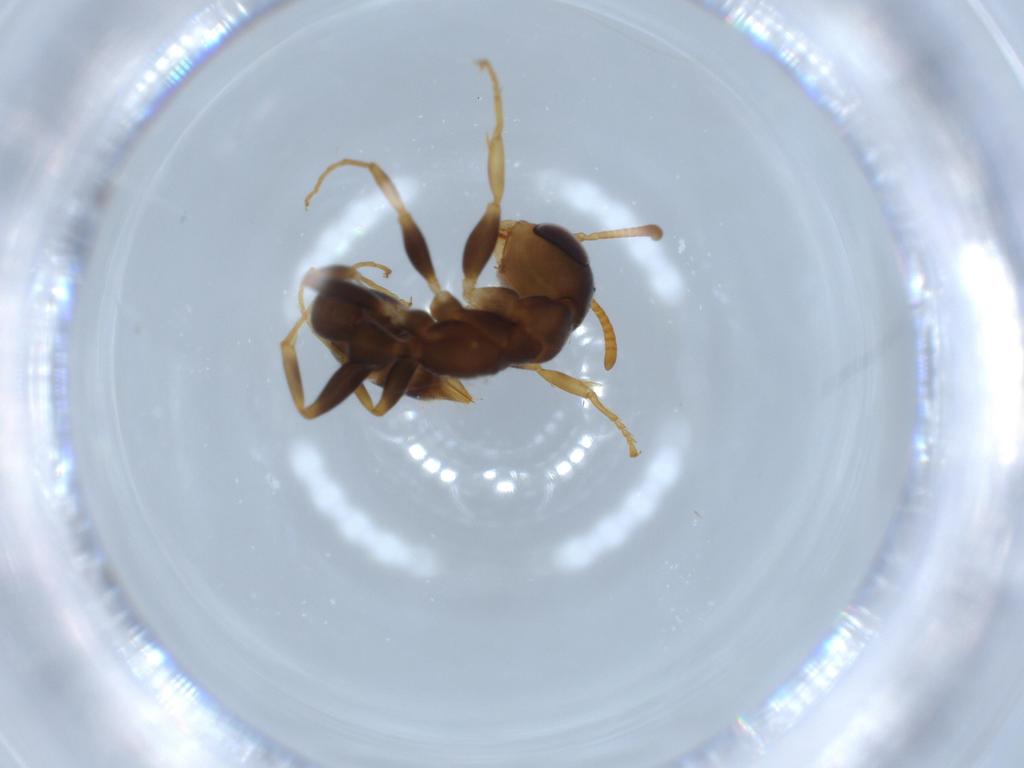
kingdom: Animalia
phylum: Arthropoda
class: Insecta
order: Hymenoptera
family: Formicidae
